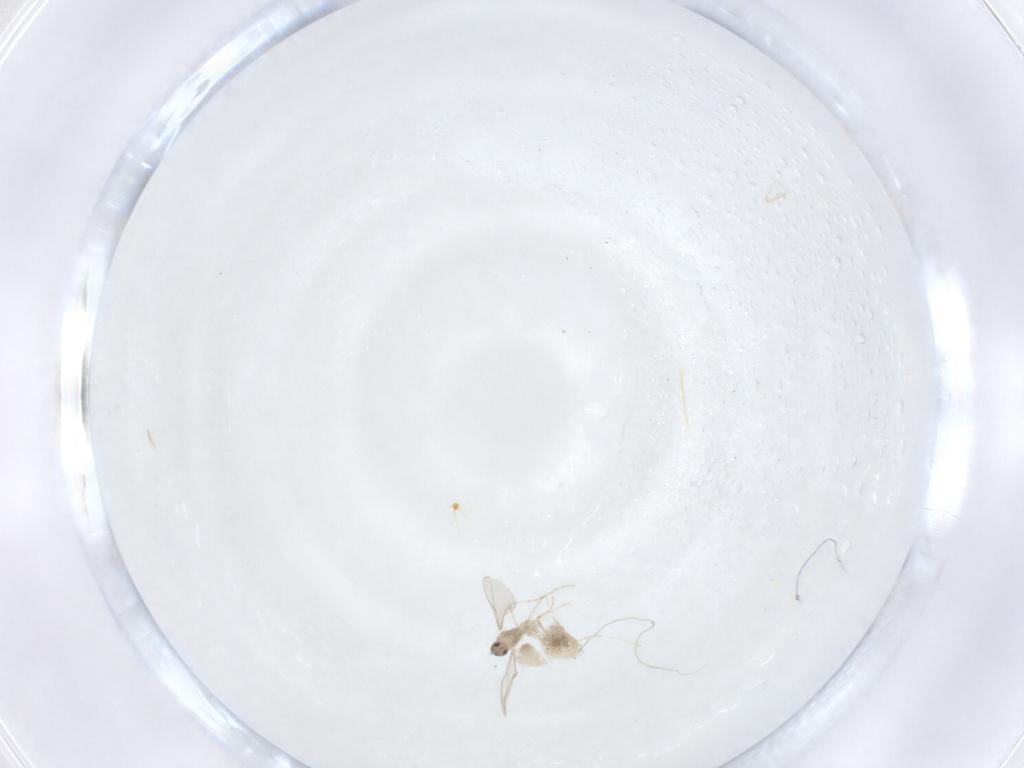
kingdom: Animalia
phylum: Arthropoda
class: Insecta
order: Diptera
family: Cecidomyiidae
